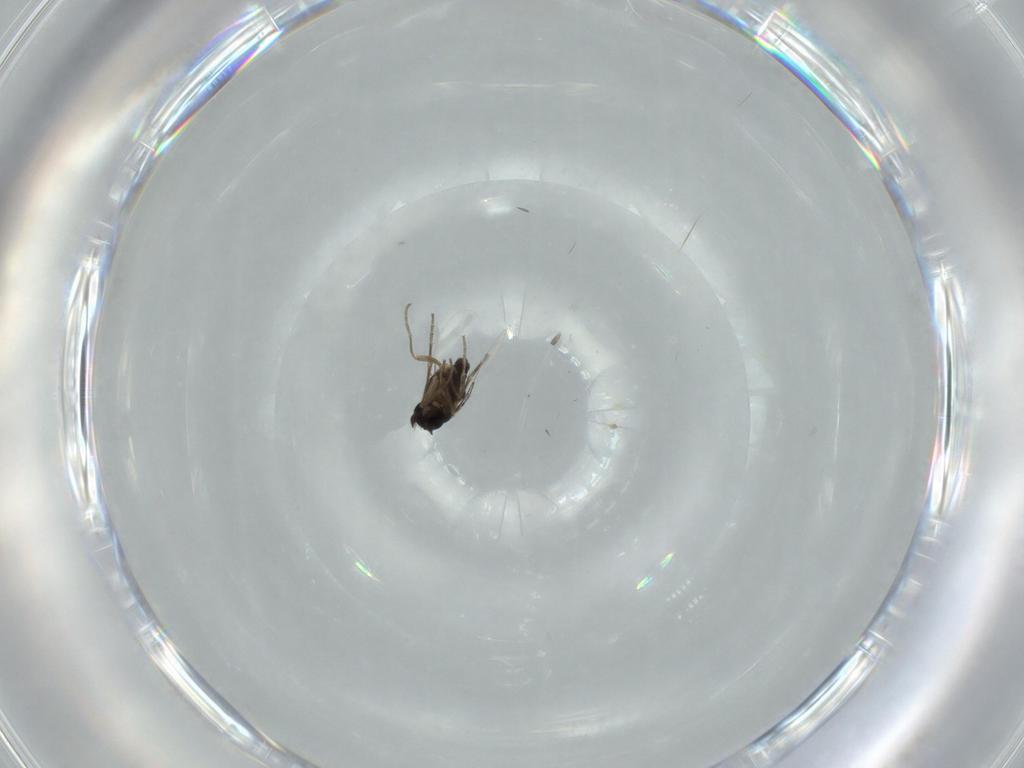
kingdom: Animalia
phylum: Arthropoda
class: Insecta
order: Diptera
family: Phoridae
